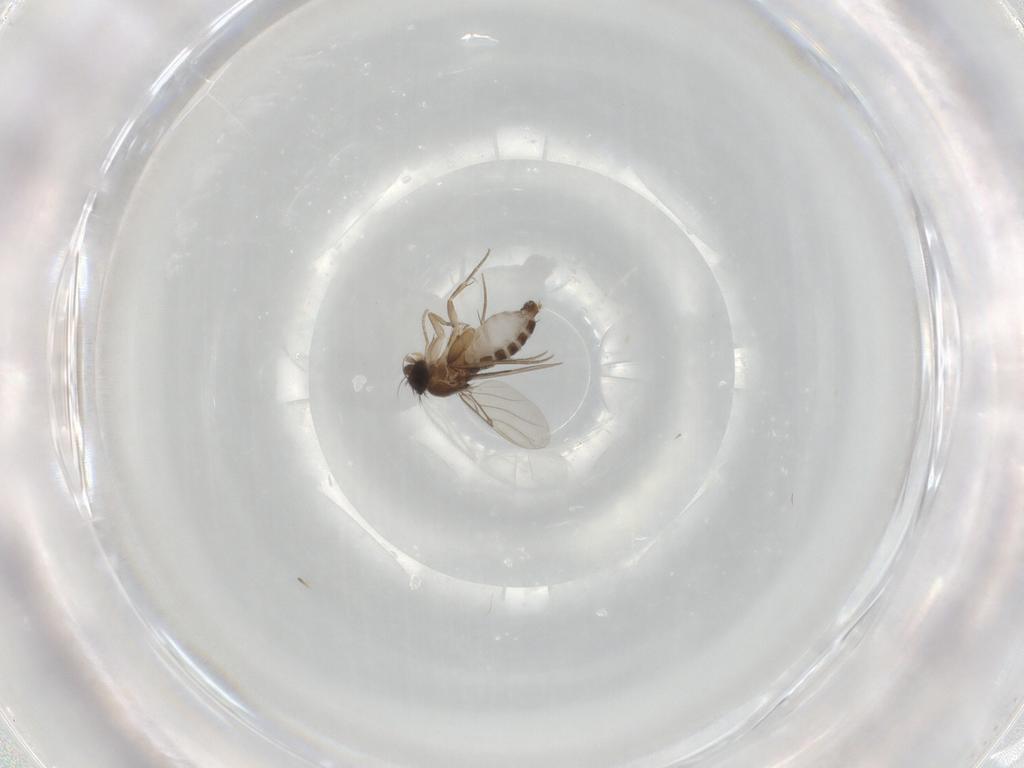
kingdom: Animalia
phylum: Arthropoda
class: Insecta
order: Diptera
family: Phoridae
